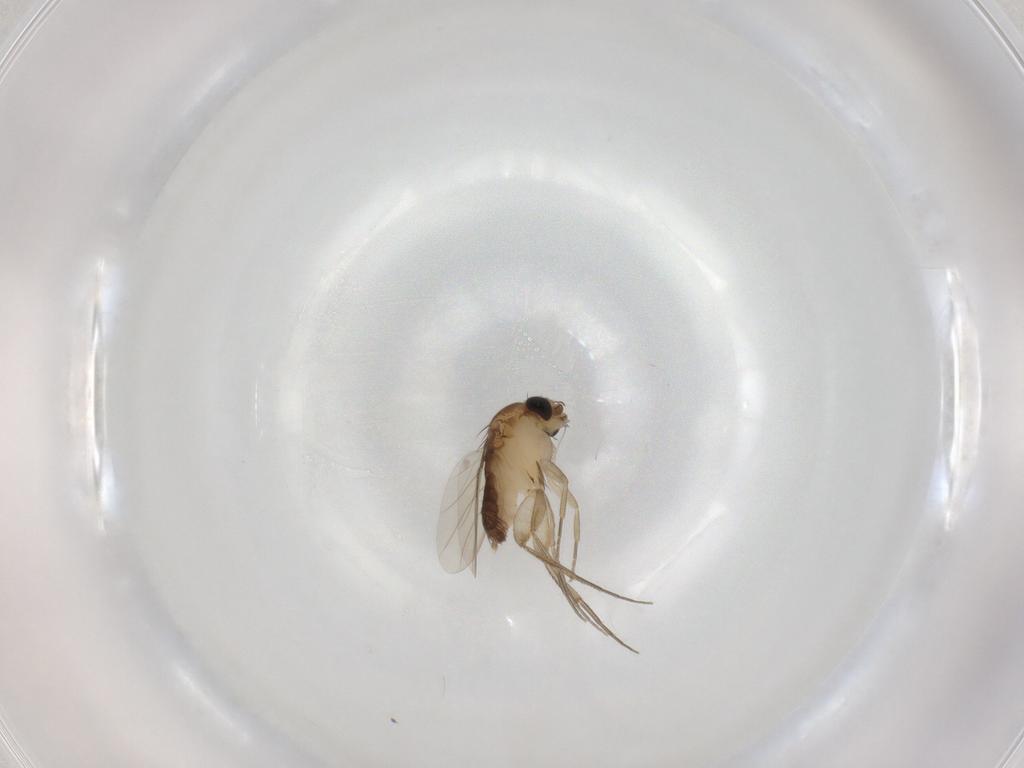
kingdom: Animalia
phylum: Arthropoda
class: Insecta
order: Diptera
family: Phoridae
